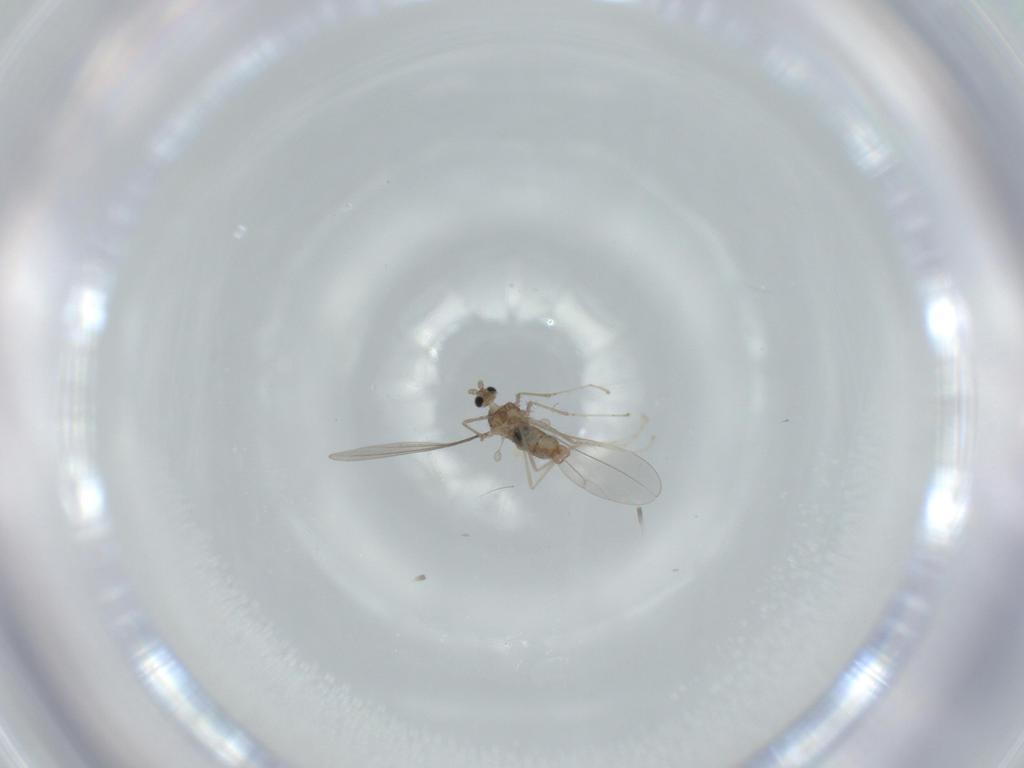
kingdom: Animalia
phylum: Arthropoda
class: Insecta
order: Diptera
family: Cecidomyiidae
